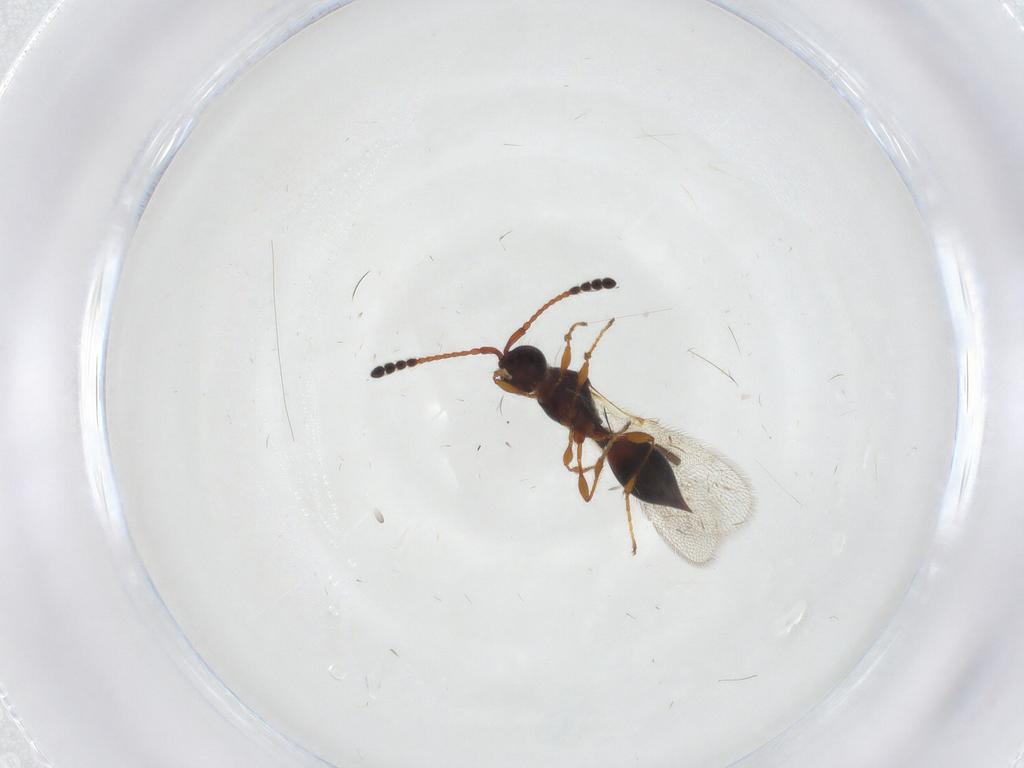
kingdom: Animalia
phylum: Arthropoda
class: Insecta
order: Hymenoptera
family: Diapriidae
